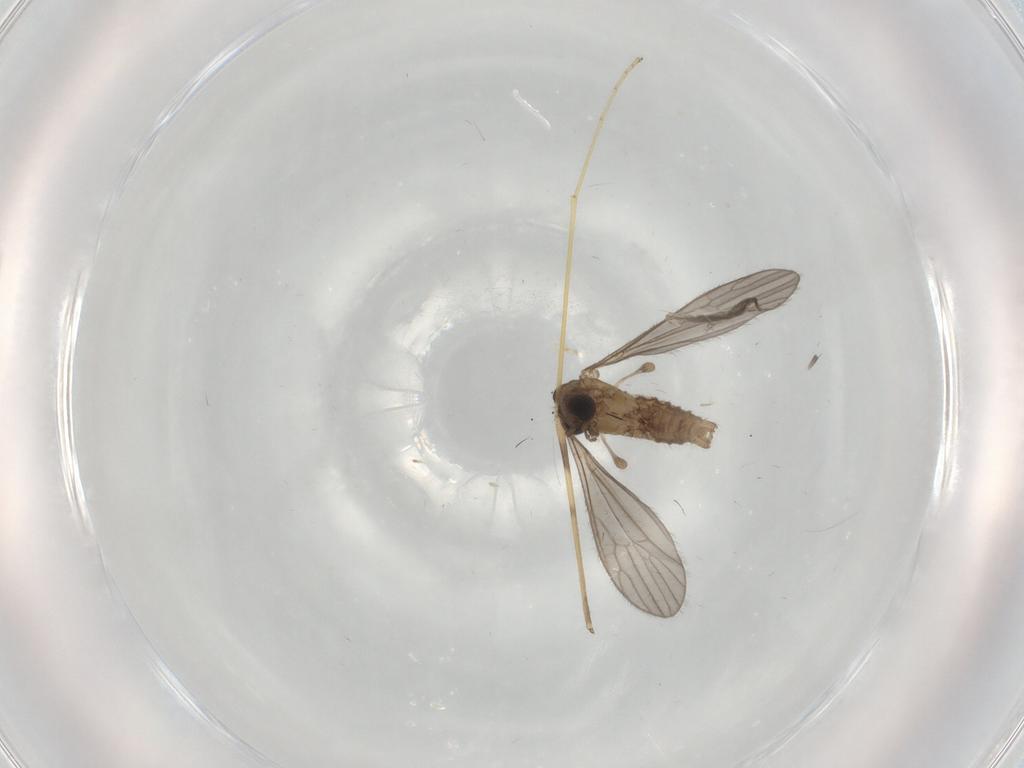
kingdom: Animalia
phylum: Arthropoda
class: Insecta
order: Diptera
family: Limoniidae
